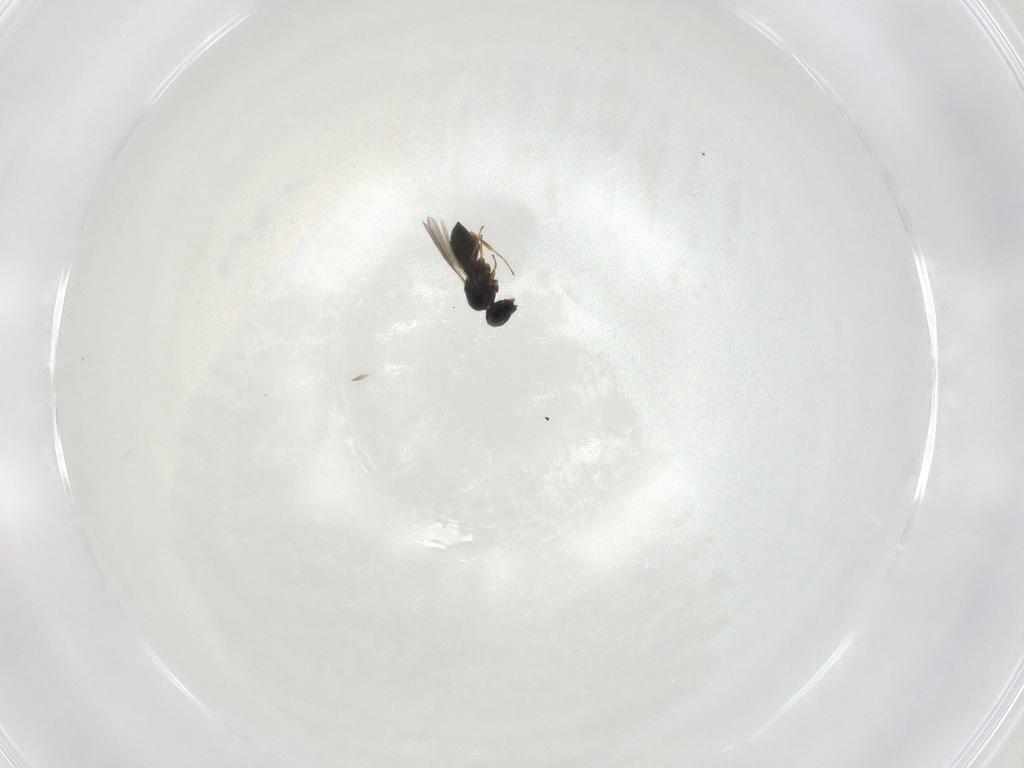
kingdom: Animalia
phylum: Arthropoda
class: Insecta
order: Hymenoptera
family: Scelionidae
